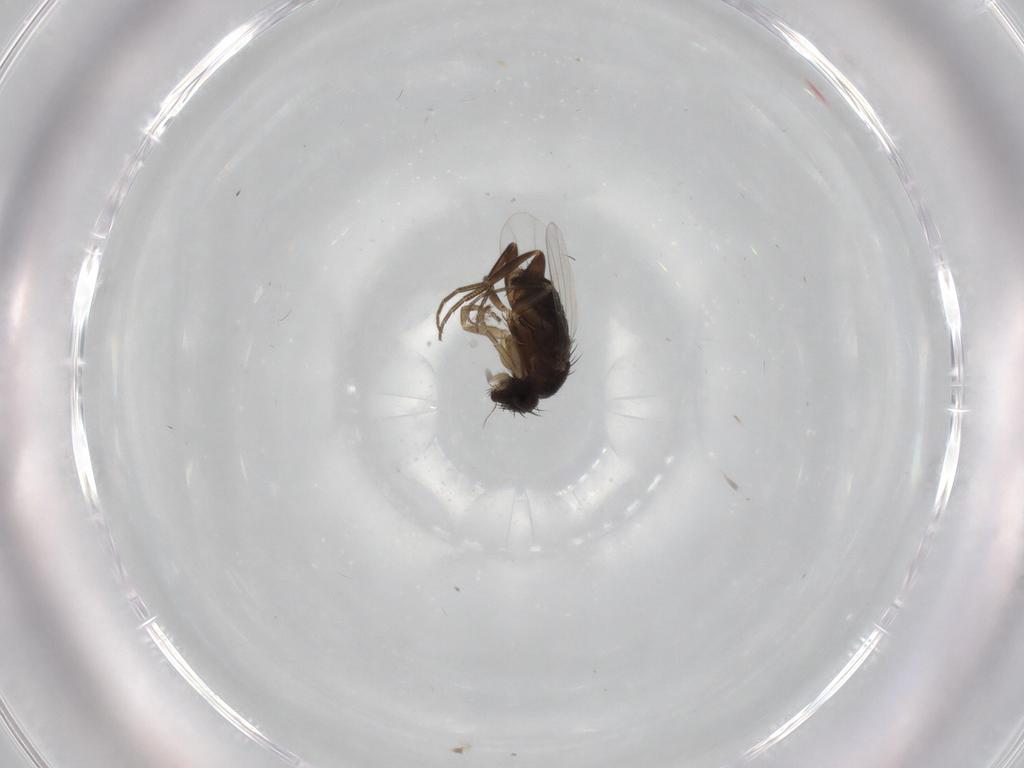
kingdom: Animalia
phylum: Arthropoda
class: Insecta
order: Diptera
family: Phoridae
